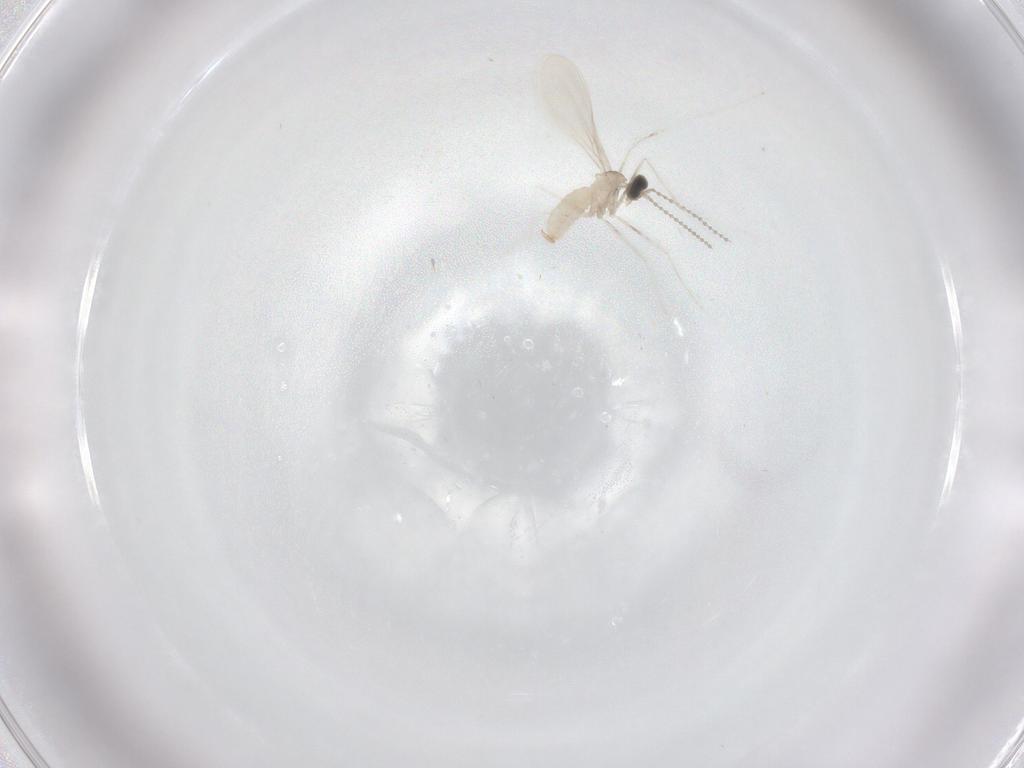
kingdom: Animalia
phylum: Arthropoda
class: Insecta
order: Diptera
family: Cecidomyiidae
